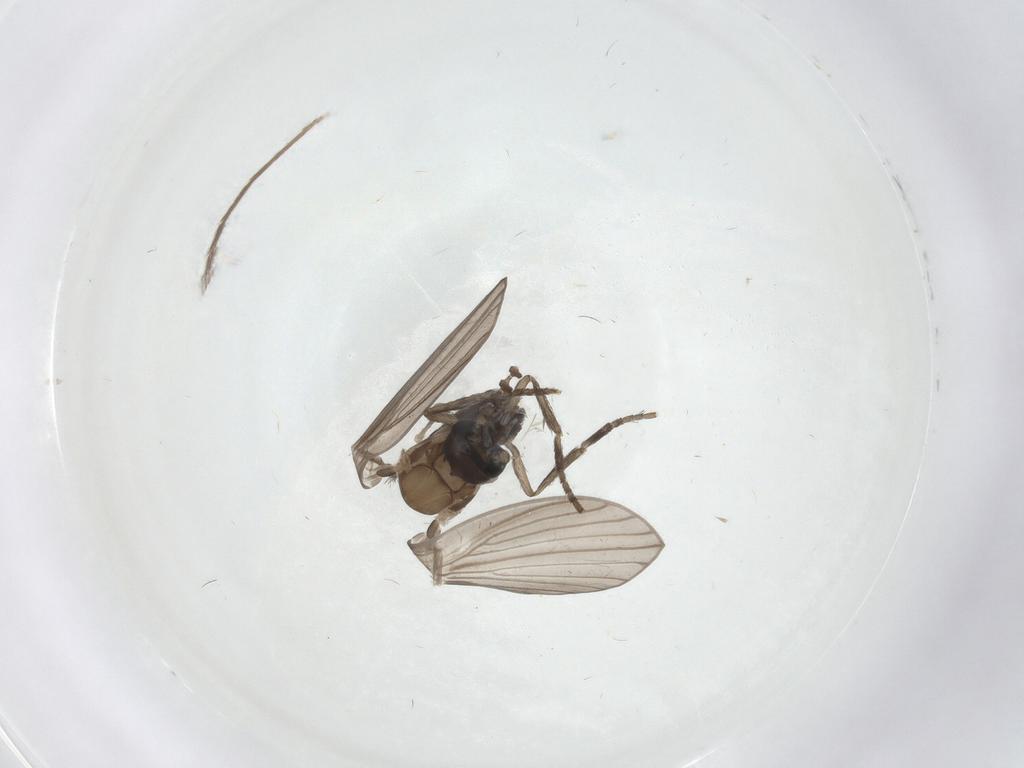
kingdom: Animalia
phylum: Arthropoda
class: Insecta
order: Diptera
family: Psychodidae
